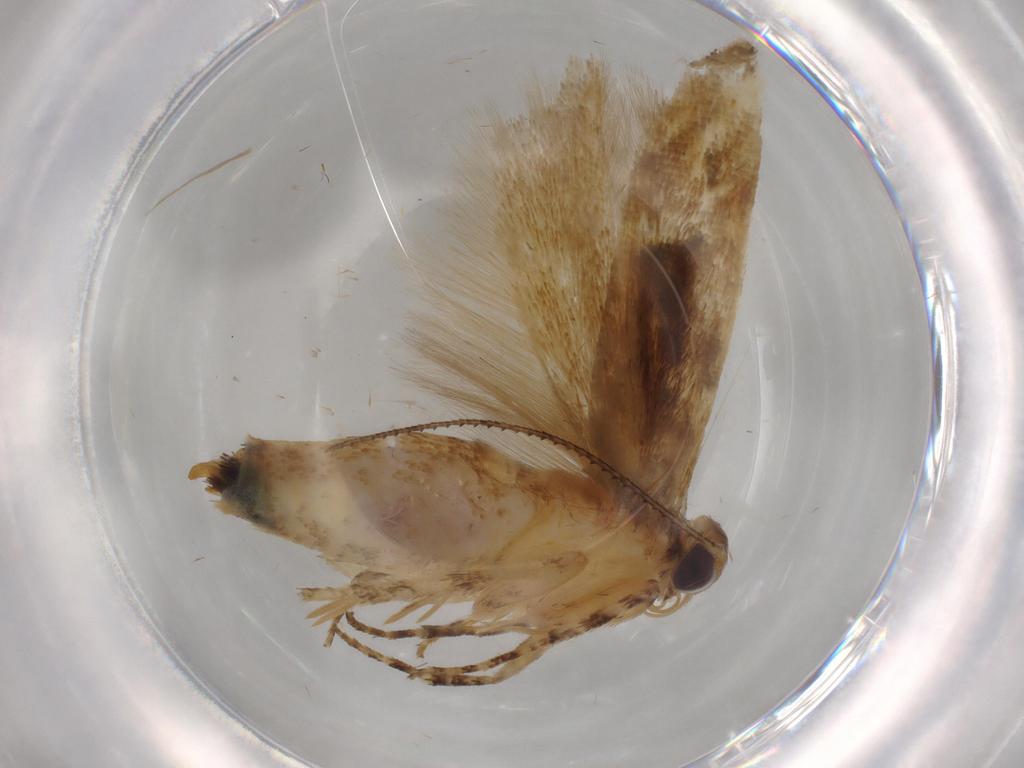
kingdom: Animalia
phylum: Arthropoda
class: Insecta
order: Lepidoptera
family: Gelechiidae
